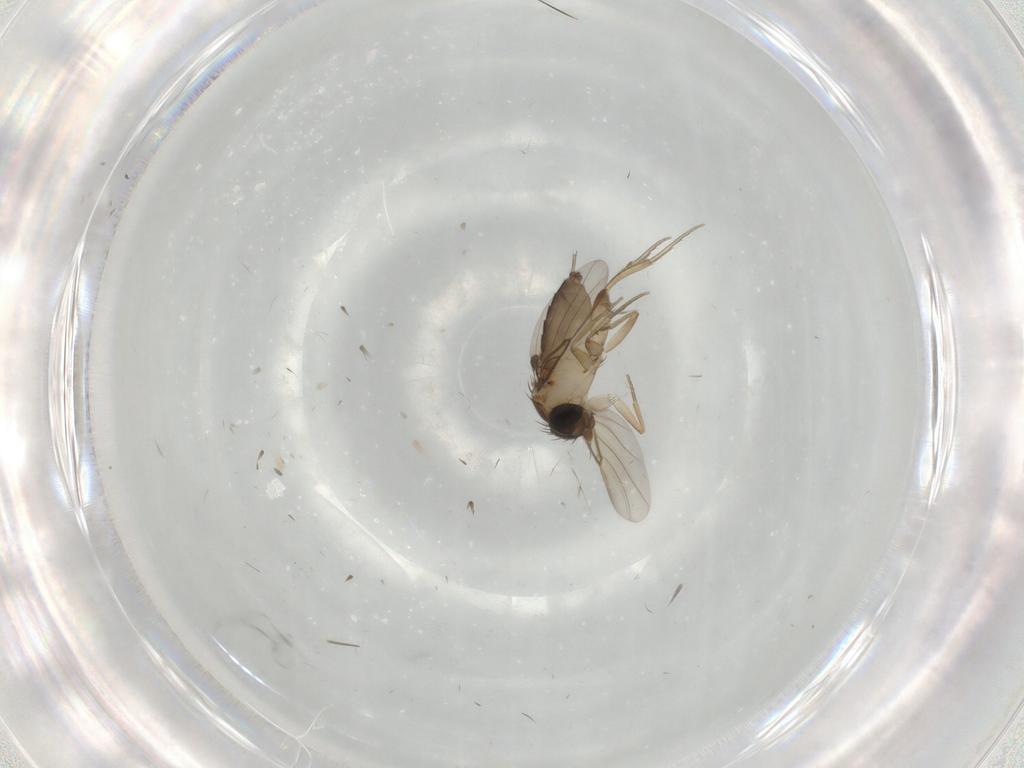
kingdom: Animalia
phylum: Arthropoda
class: Insecta
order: Diptera
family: Phoridae
